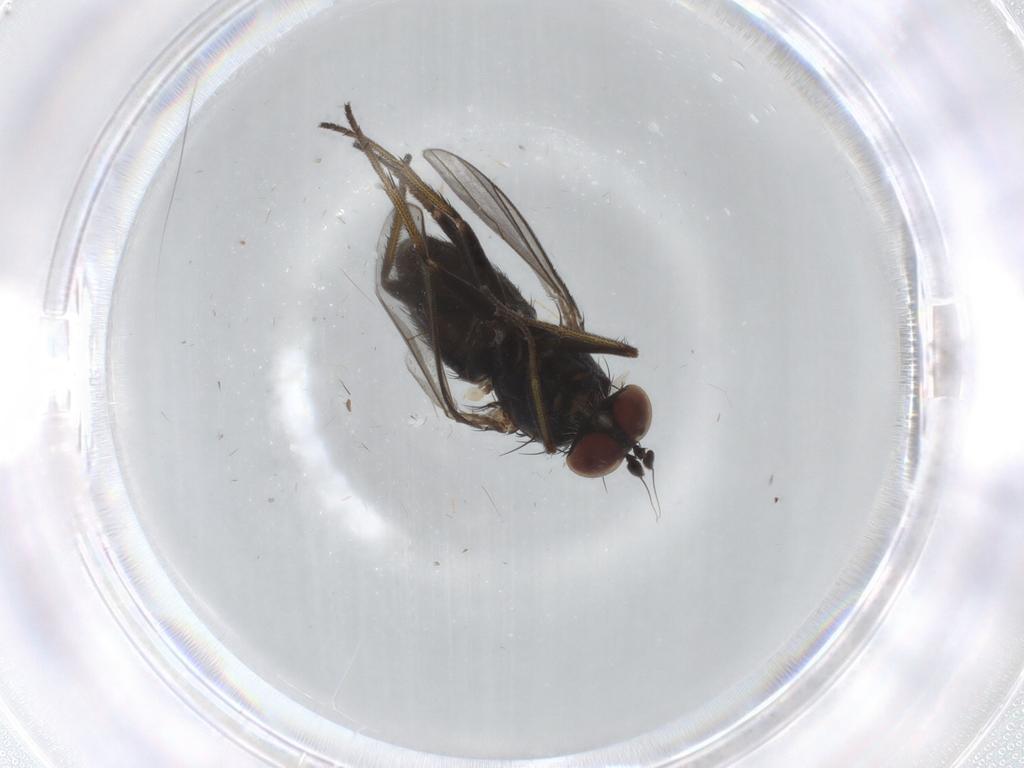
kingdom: Animalia
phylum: Arthropoda
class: Insecta
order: Diptera
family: Dolichopodidae
